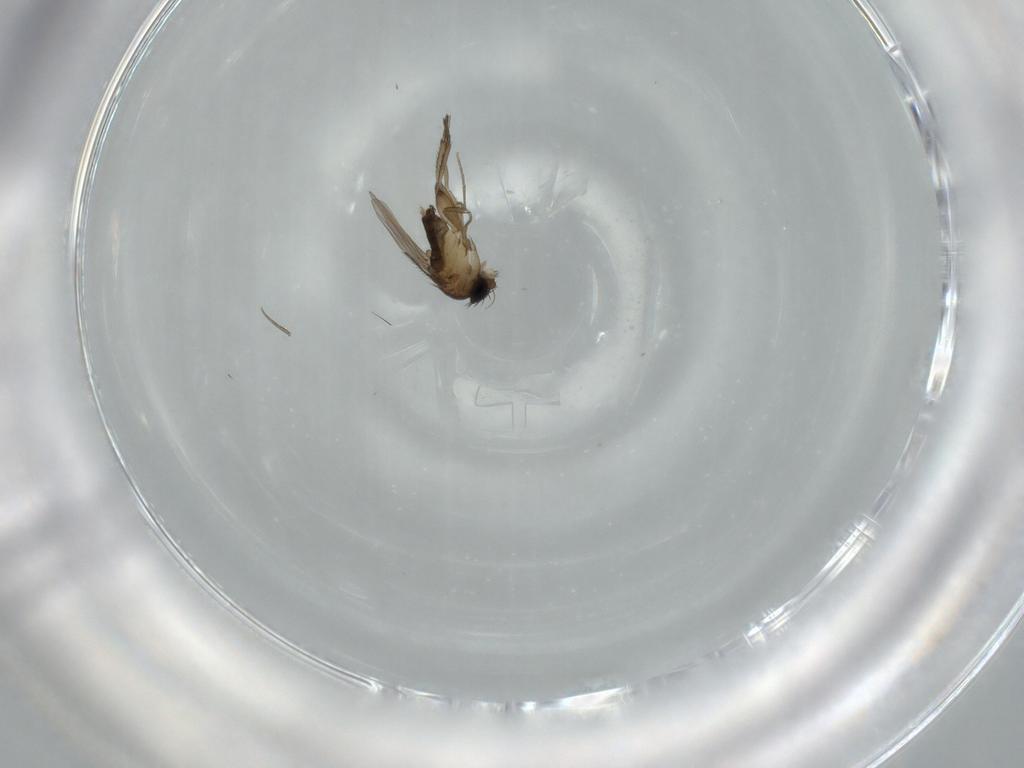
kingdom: Animalia
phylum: Arthropoda
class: Insecta
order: Diptera
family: Phoridae
